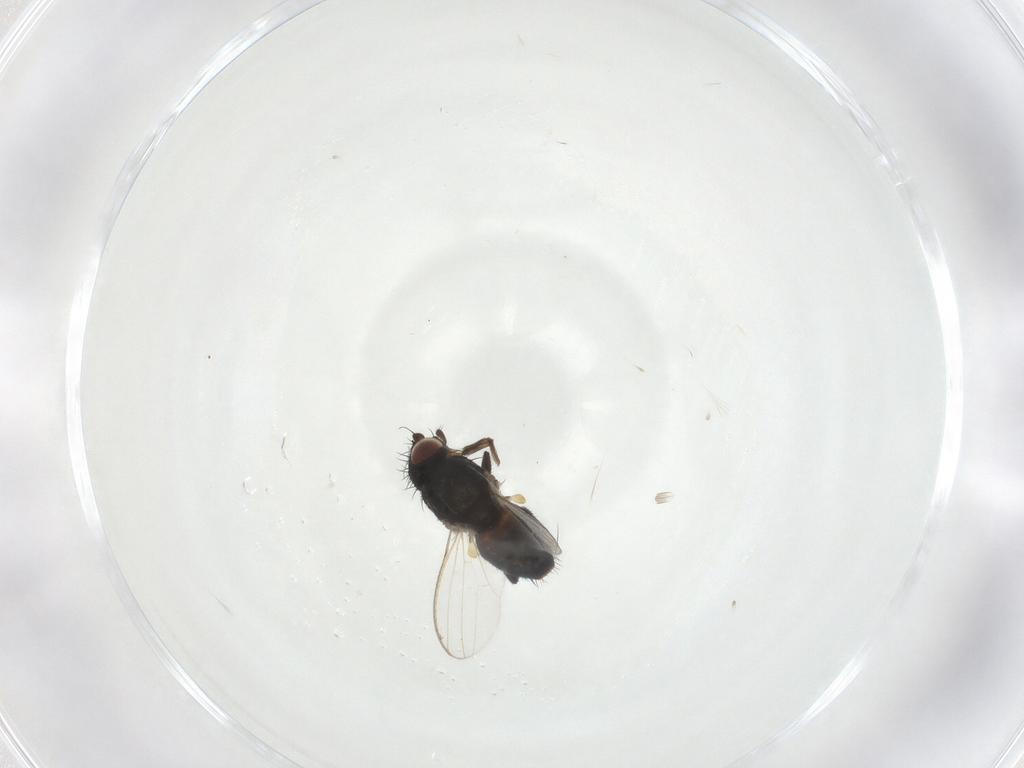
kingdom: Animalia
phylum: Arthropoda
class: Insecta
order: Diptera
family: Milichiidae
